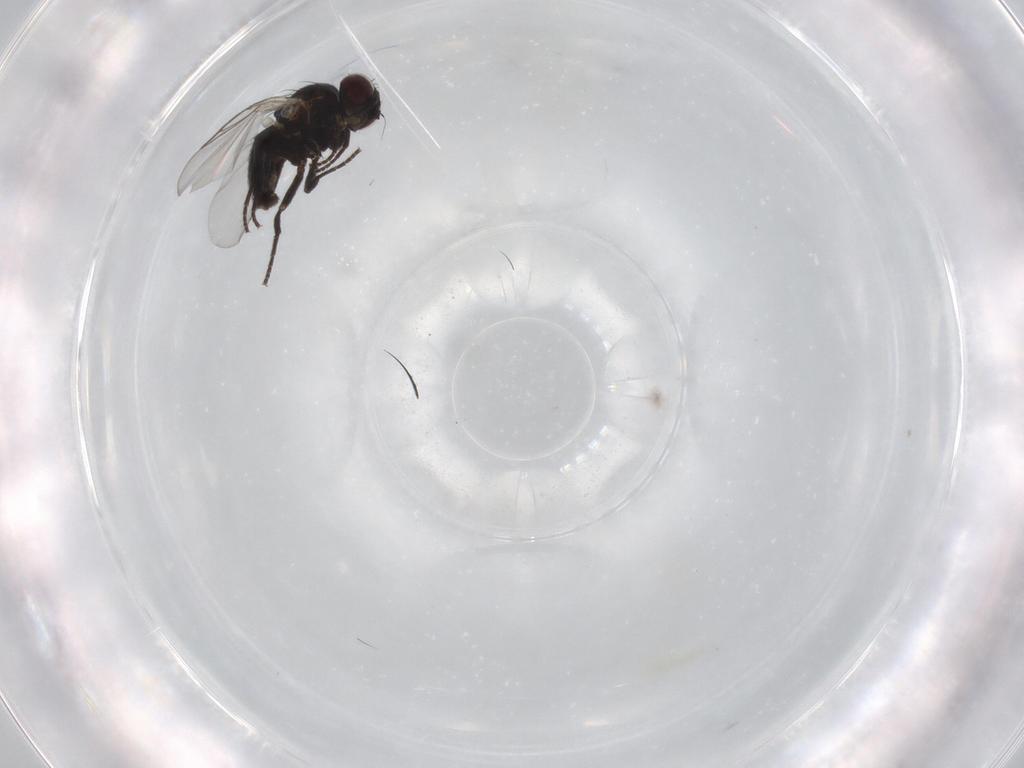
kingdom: Animalia
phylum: Arthropoda
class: Insecta
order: Diptera
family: Agromyzidae
